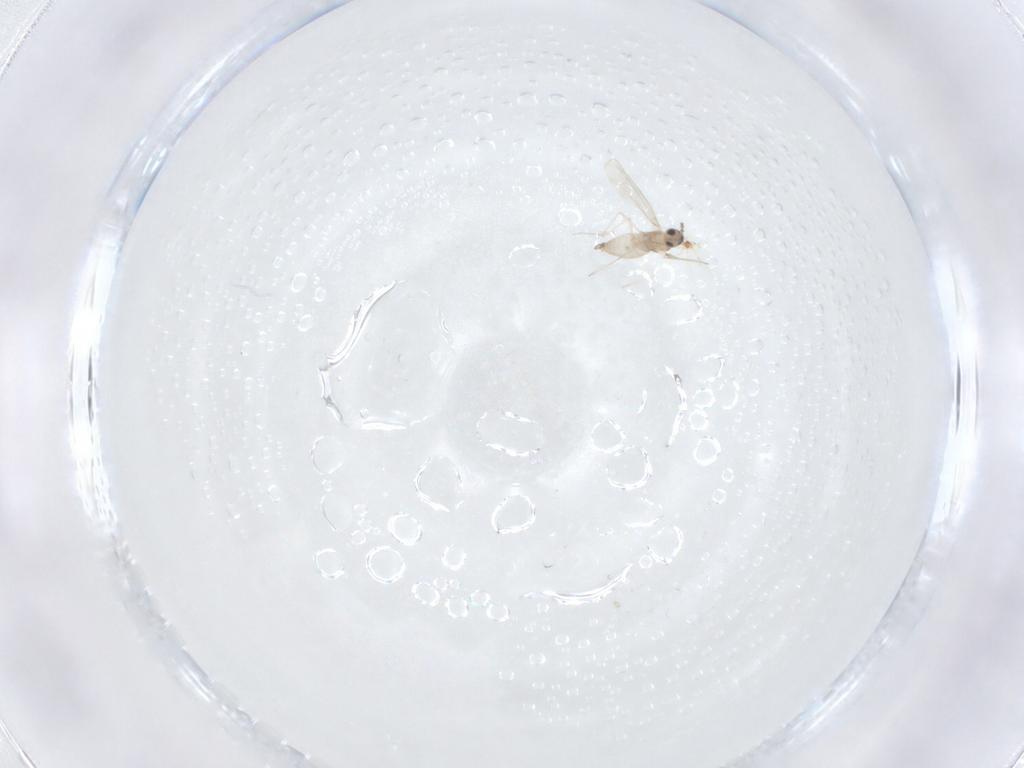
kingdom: Animalia
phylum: Arthropoda
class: Insecta
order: Diptera
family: Cecidomyiidae
